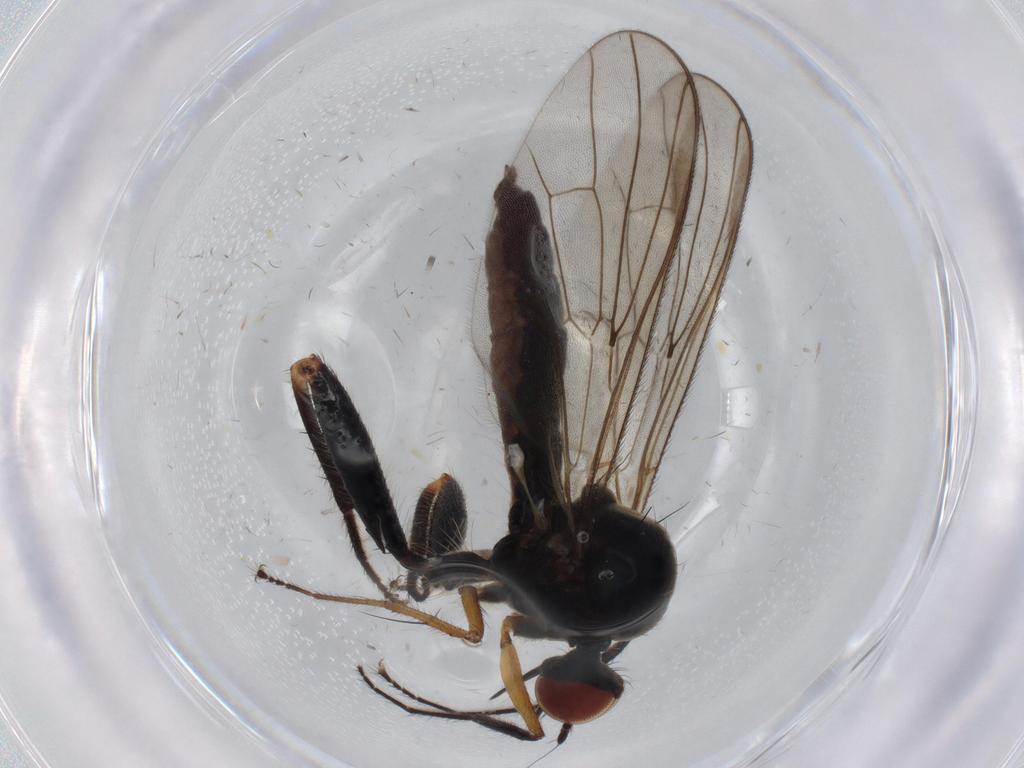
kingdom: Animalia
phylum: Arthropoda
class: Insecta
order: Diptera
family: Hybotidae
